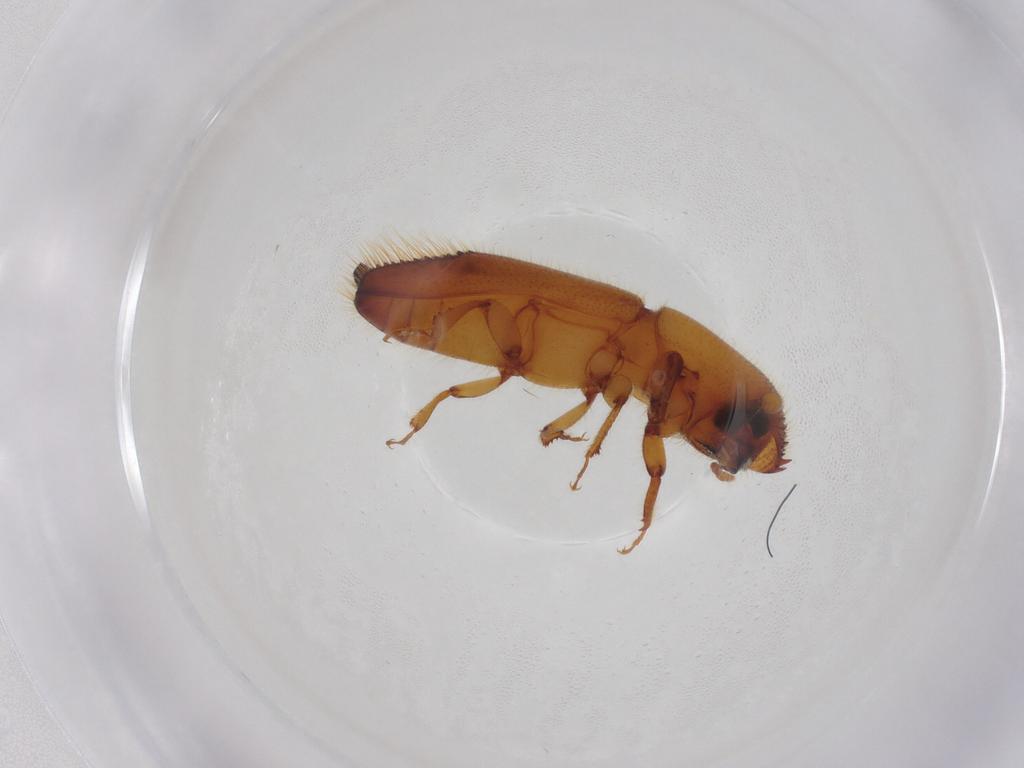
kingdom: Animalia
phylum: Arthropoda
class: Insecta
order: Coleoptera
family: Curculionidae
